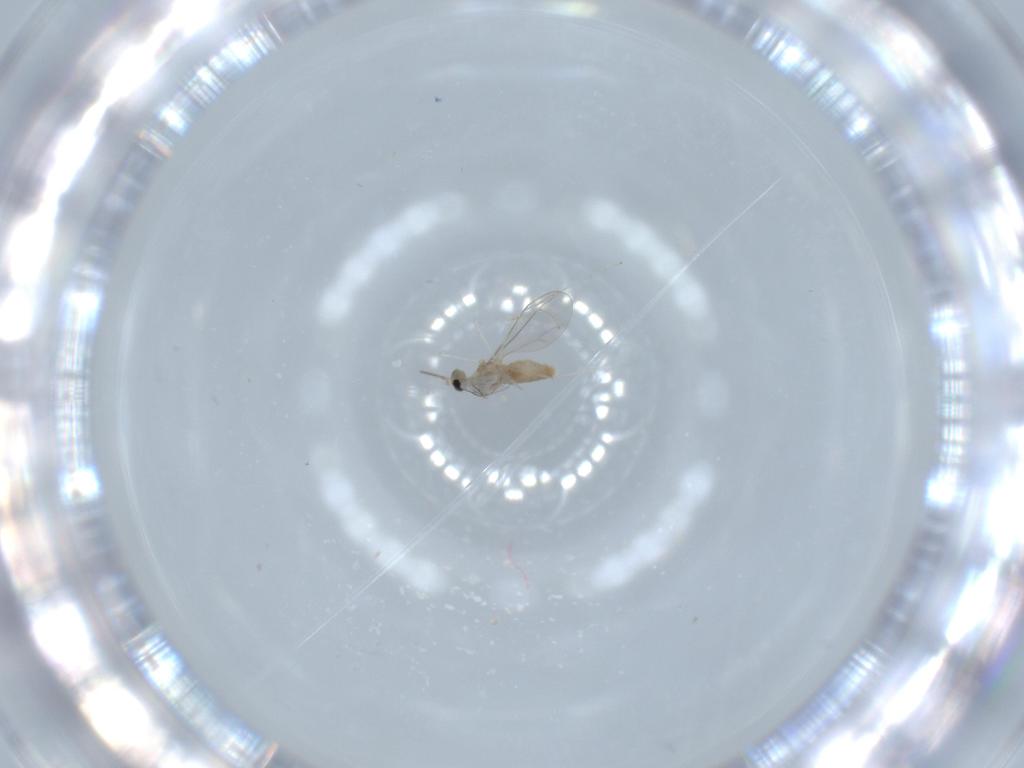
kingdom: Animalia
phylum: Arthropoda
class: Insecta
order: Diptera
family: Cecidomyiidae
